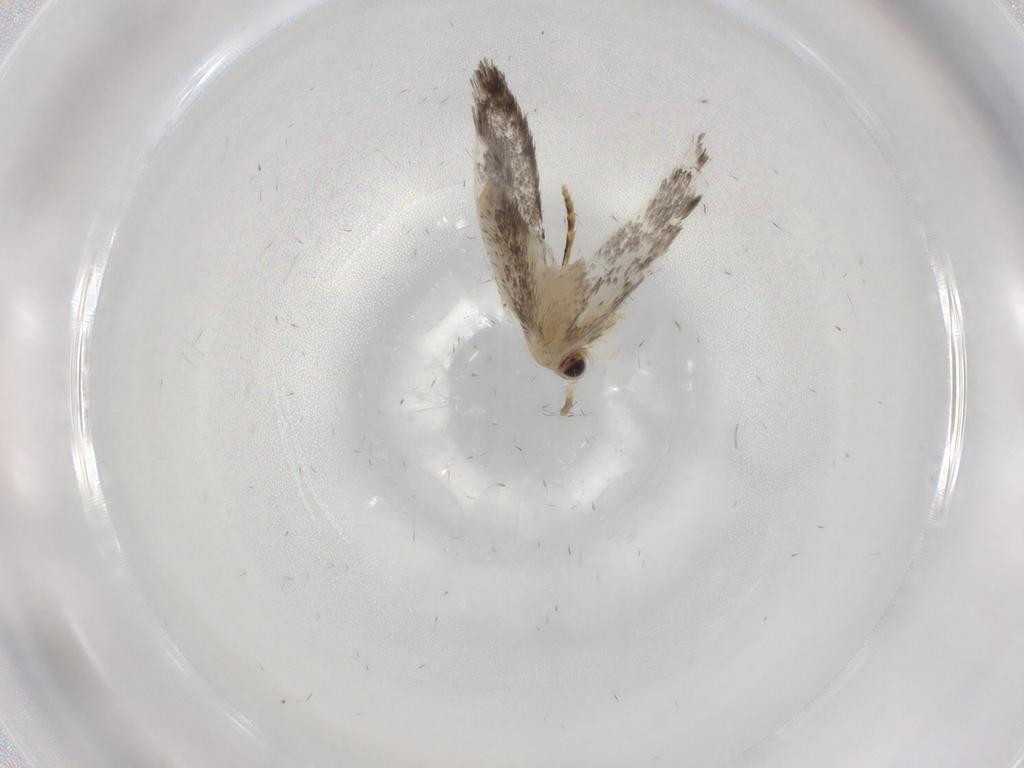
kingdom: Animalia
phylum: Arthropoda
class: Insecta
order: Lepidoptera
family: Tineidae
